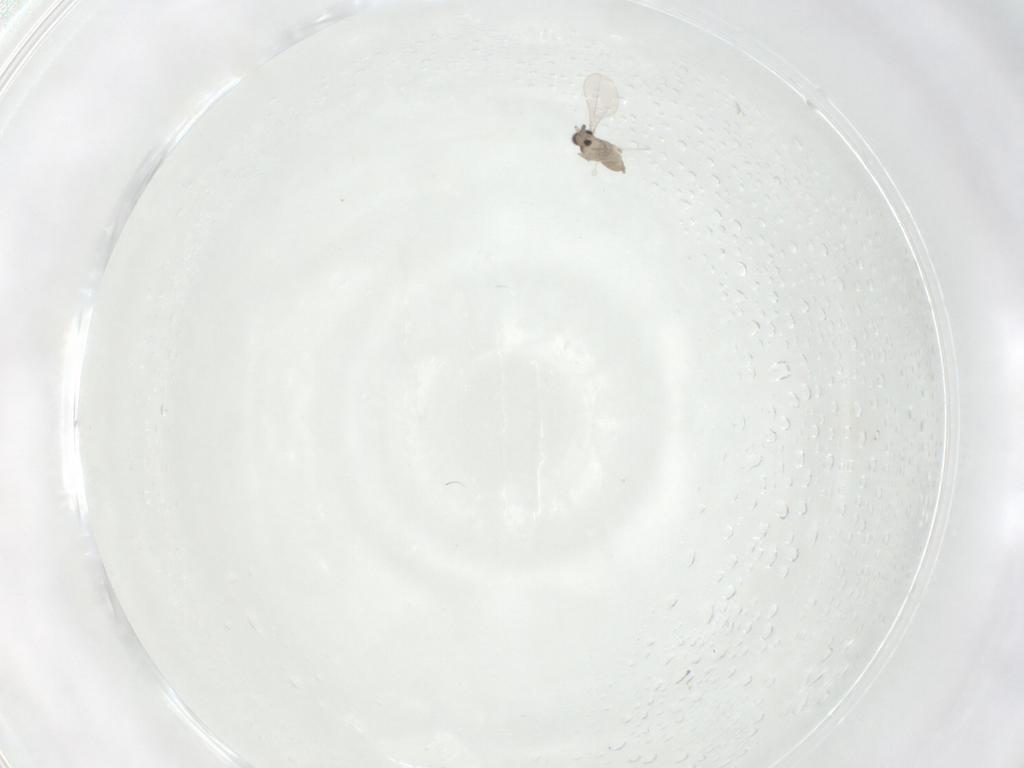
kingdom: Animalia
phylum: Arthropoda
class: Insecta
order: Diptera
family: Cecidomyiidae
